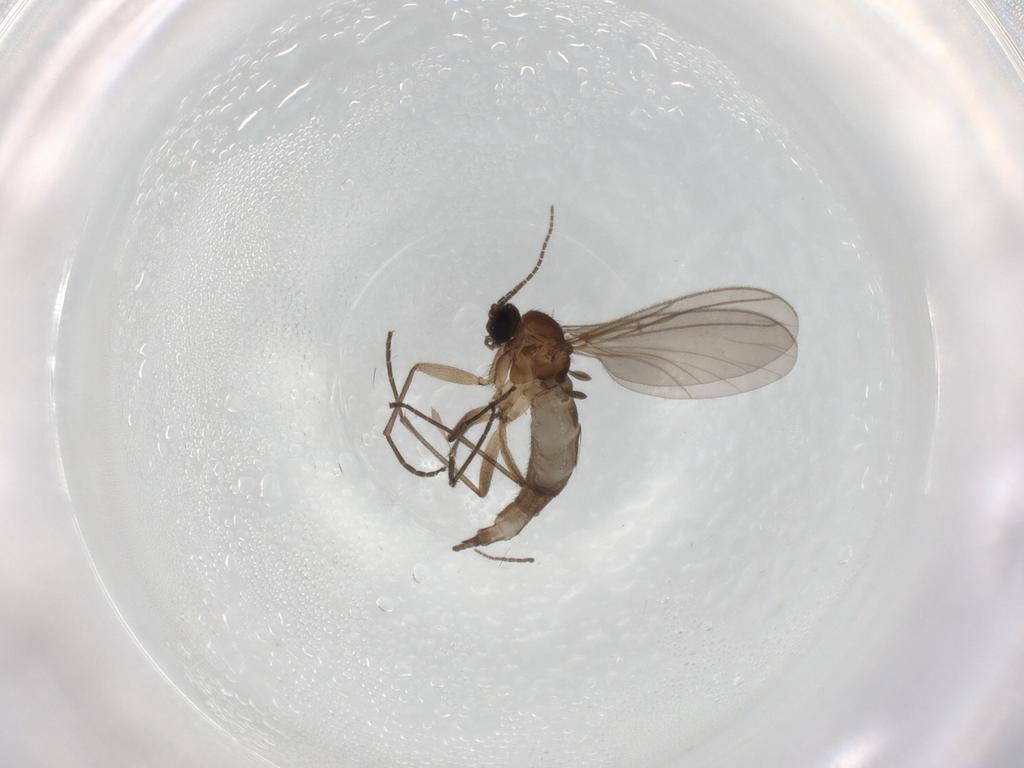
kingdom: Animalia
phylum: Arthropoda
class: Insecta
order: Diptera
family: Sciaridae
